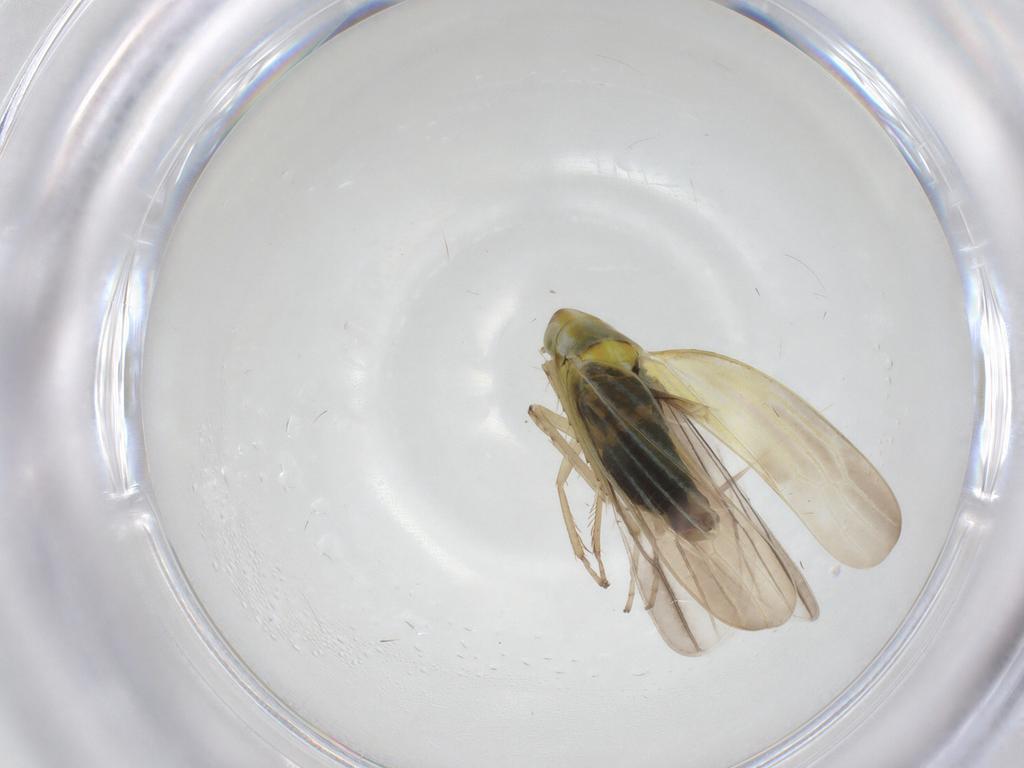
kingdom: Animalia
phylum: Arthropoda
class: Insecta
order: Hemiptera
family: Cicadellidae
